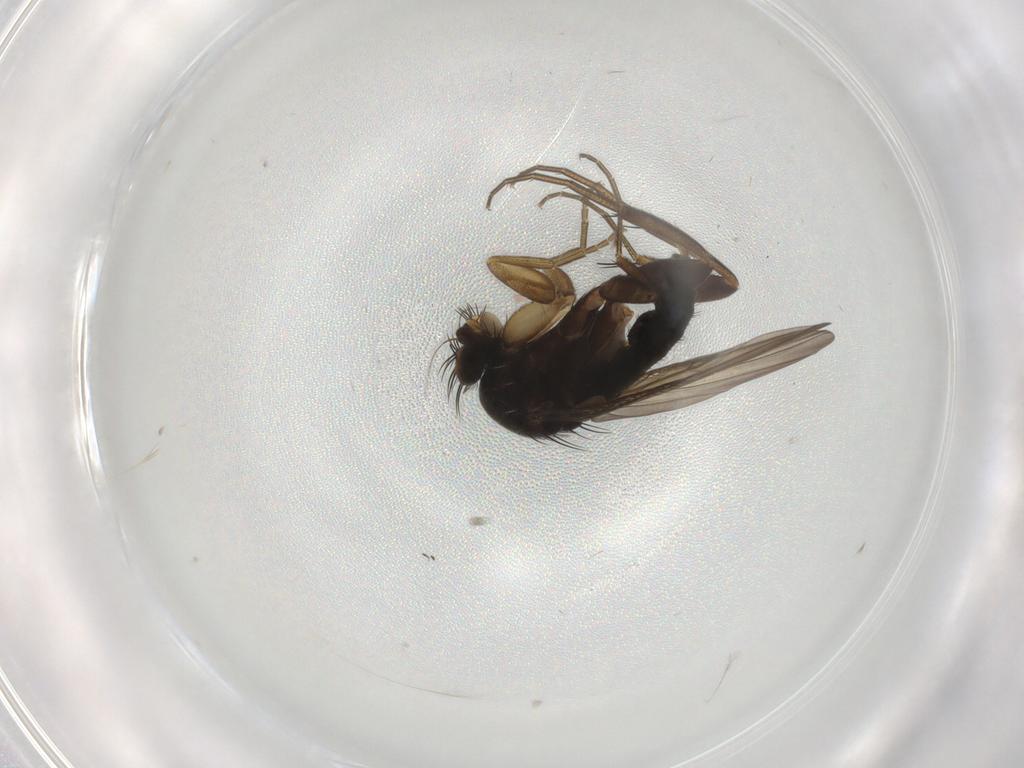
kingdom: Animalia
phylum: Arthropoda
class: Insecta
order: Diptera
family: Phoridae
